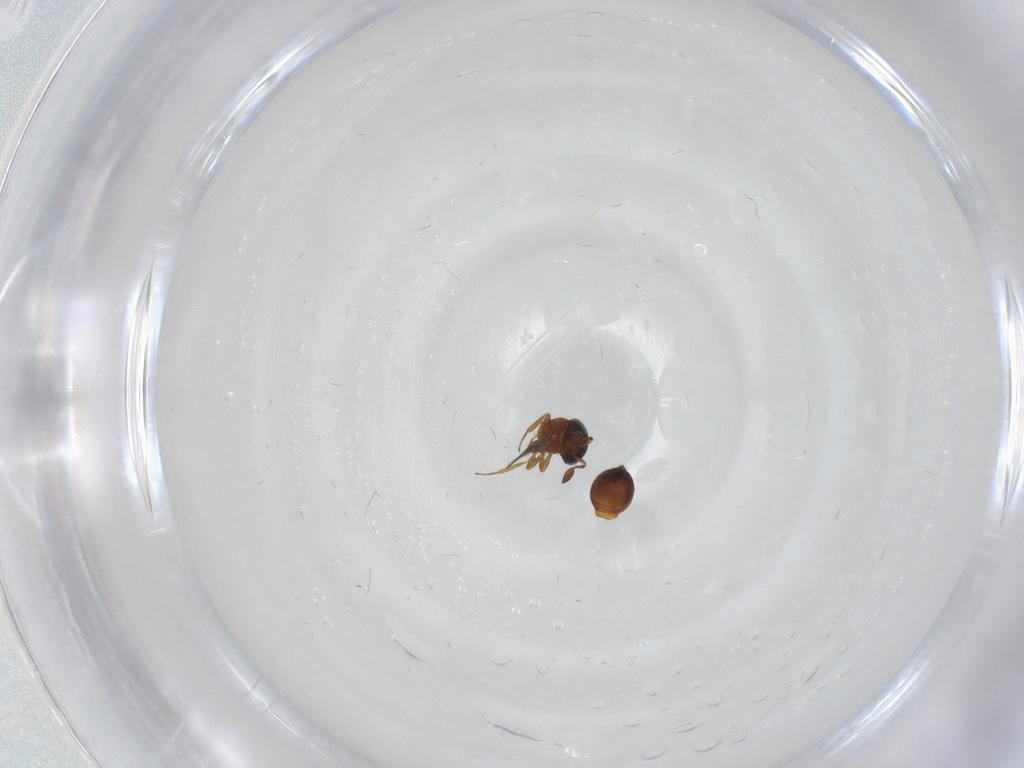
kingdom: Animalia
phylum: Arthropoda
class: Insecta
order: Hymenoptera
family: Scelionidae
